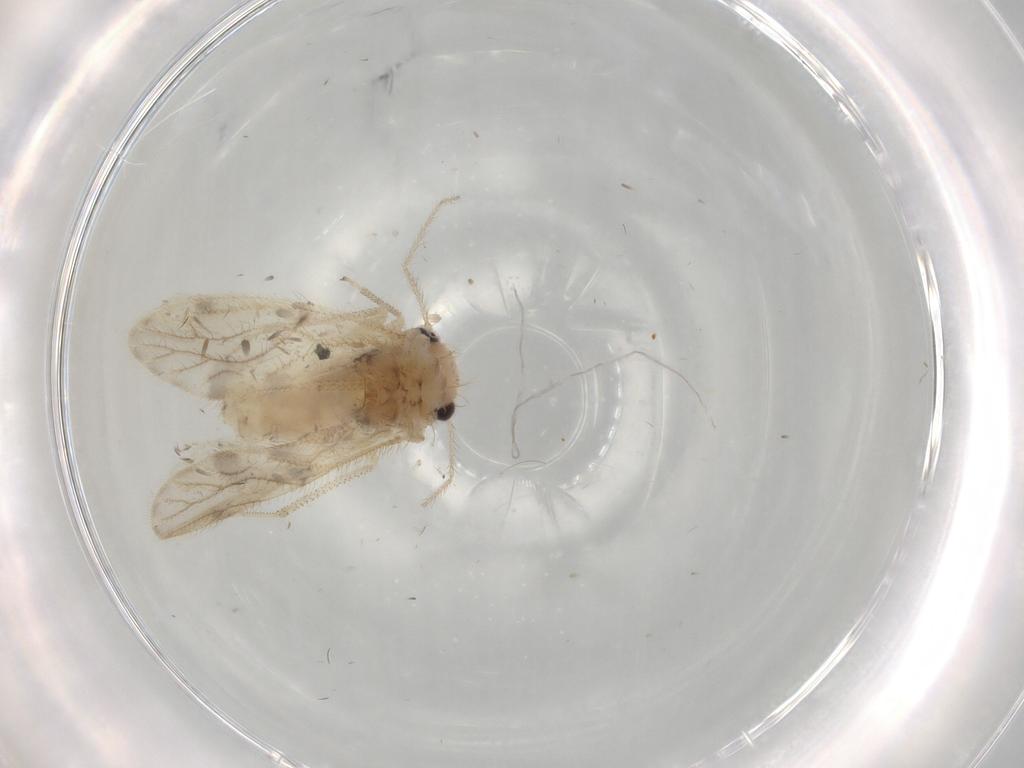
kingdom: Animalia
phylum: Arthropoda
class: Insecta
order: Psocodea
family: Pseudocaeciliidae
